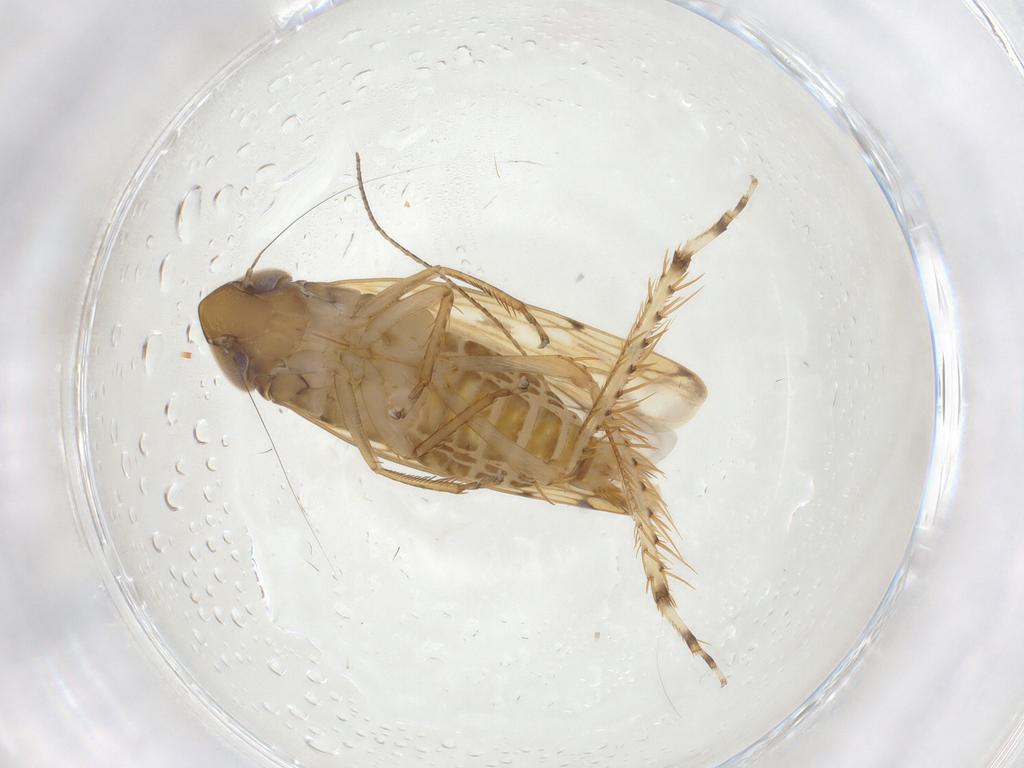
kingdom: Animalia
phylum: Arthropoda
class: Insecta
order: Hemiptera
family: Cicadellidae
